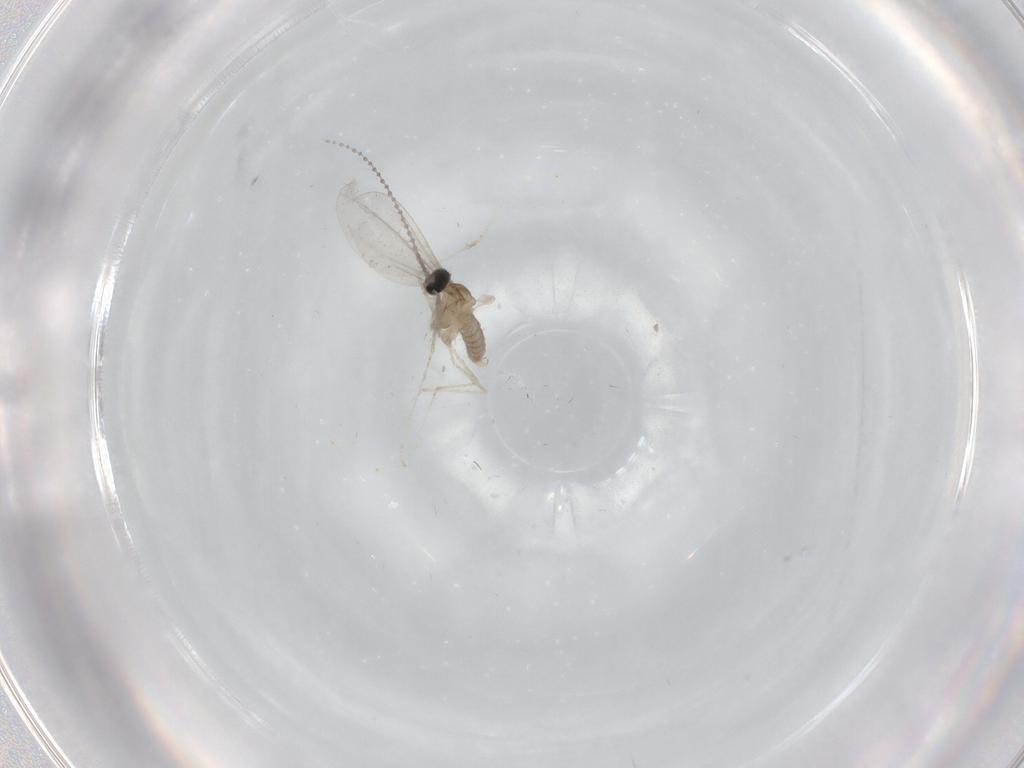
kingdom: Animalia
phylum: Arthropoda
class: Insecta
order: Diptera
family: Cecidomyiidae
